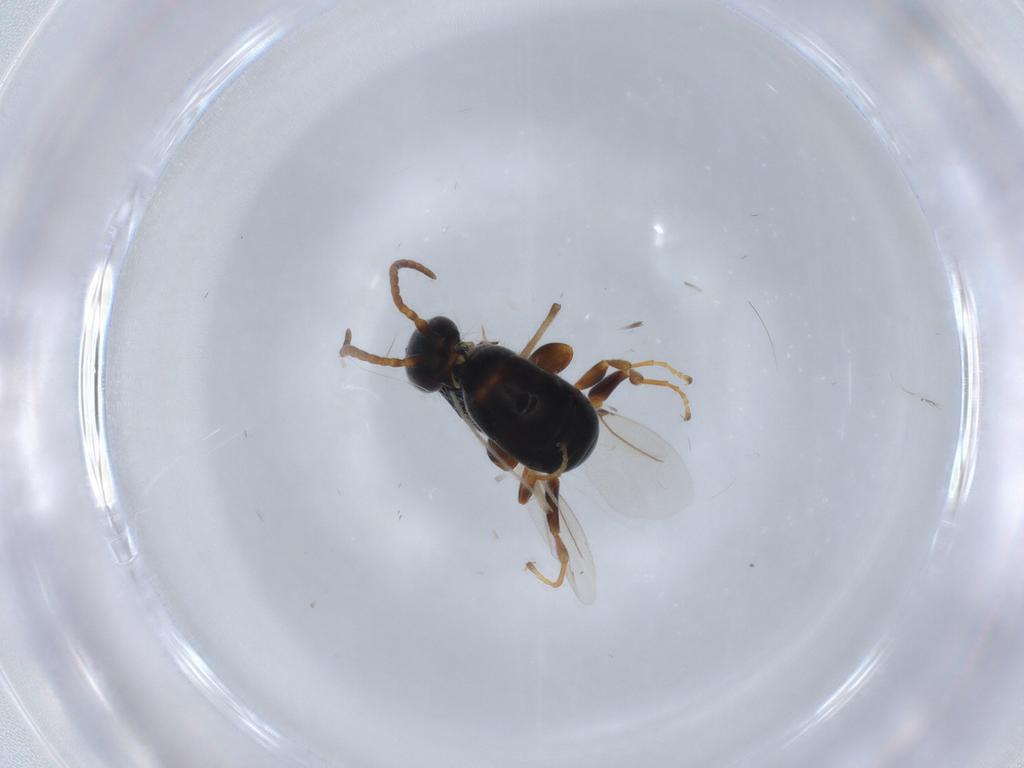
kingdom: Animalia
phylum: Arthropoda
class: Insecta
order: Hymenoptera
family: Bethylidae
